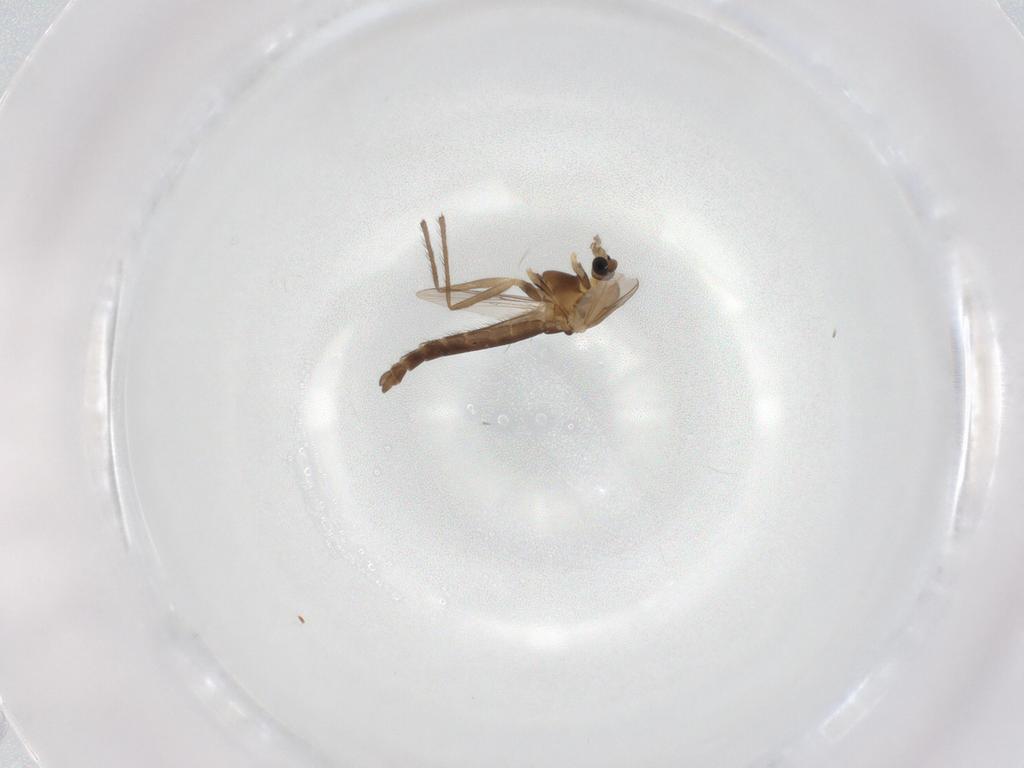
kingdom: Animalia
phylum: Arthropoda
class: Insecta
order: Diptera
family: Chironomidae
